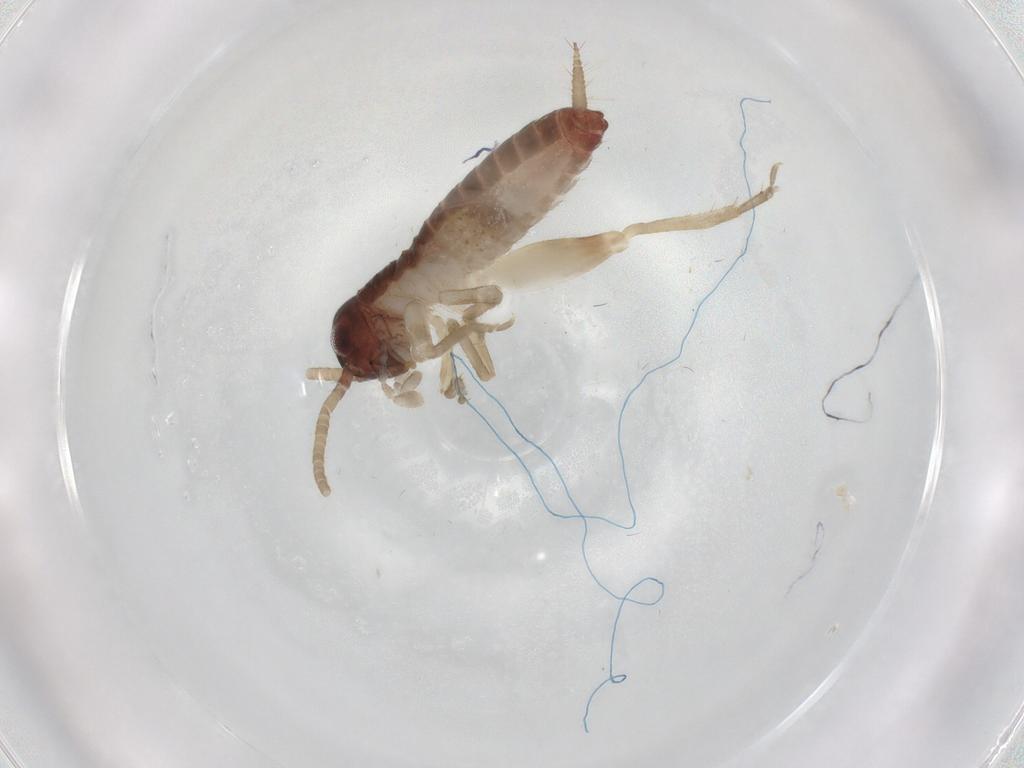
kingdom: Animalia
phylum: Arthropoda
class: Insecta
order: Orthoptera
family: Gryllidae
